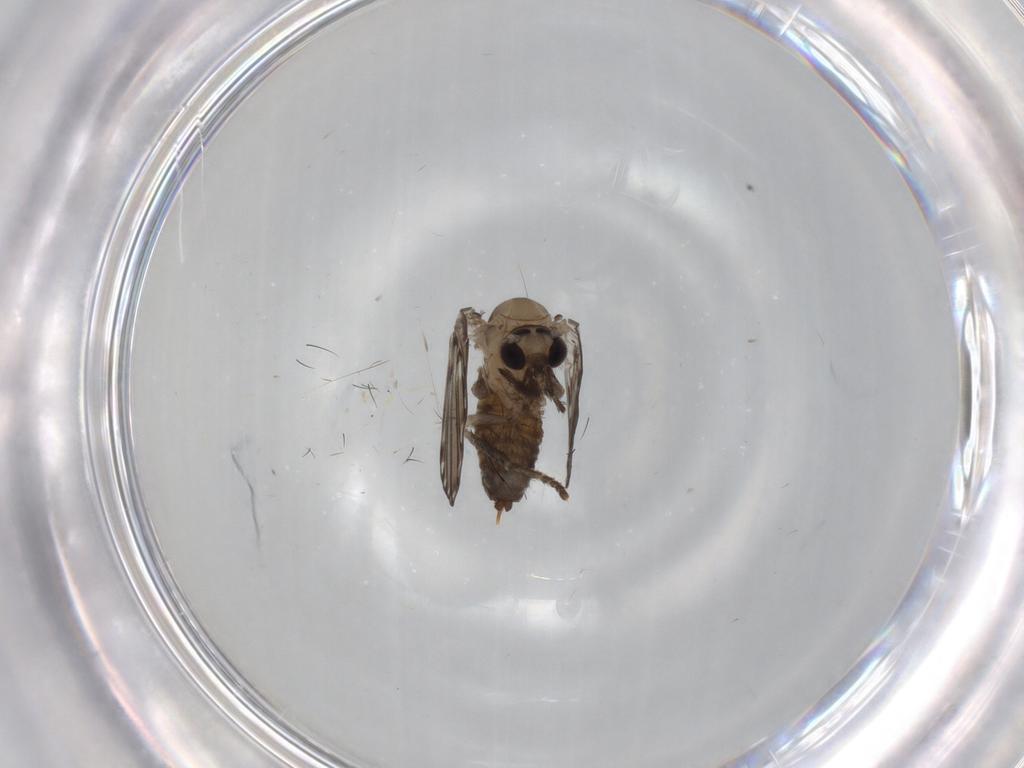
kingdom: Animalia
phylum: Arthropoda
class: Insecta
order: Diptera
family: Psychodidae
